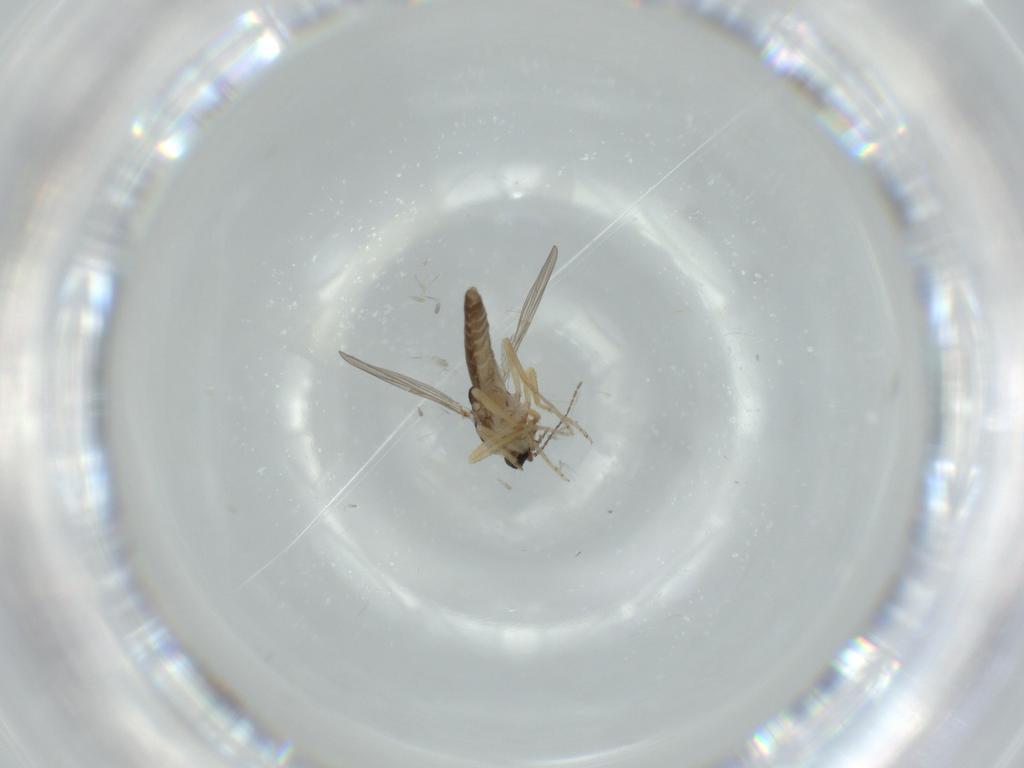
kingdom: Animalia
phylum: Arthropoda
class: Insecta
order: Diptera
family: Ceratopogonidae
